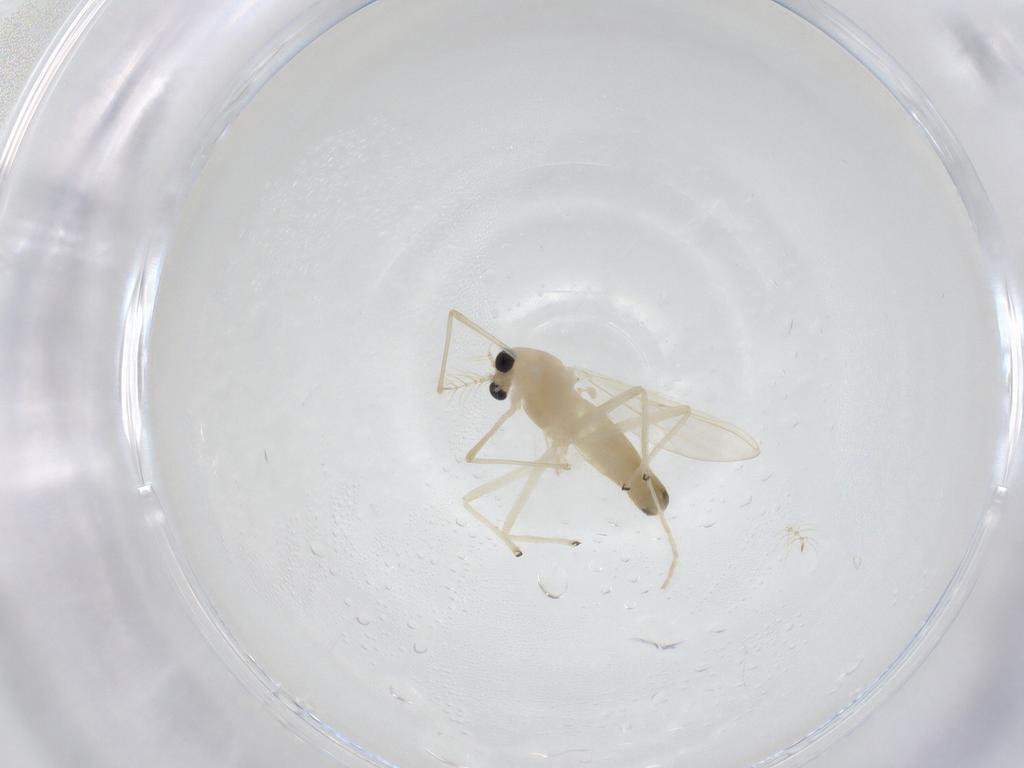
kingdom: Animalia
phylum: Arthropoda
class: Insecta
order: Diptera
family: Chironomidae
